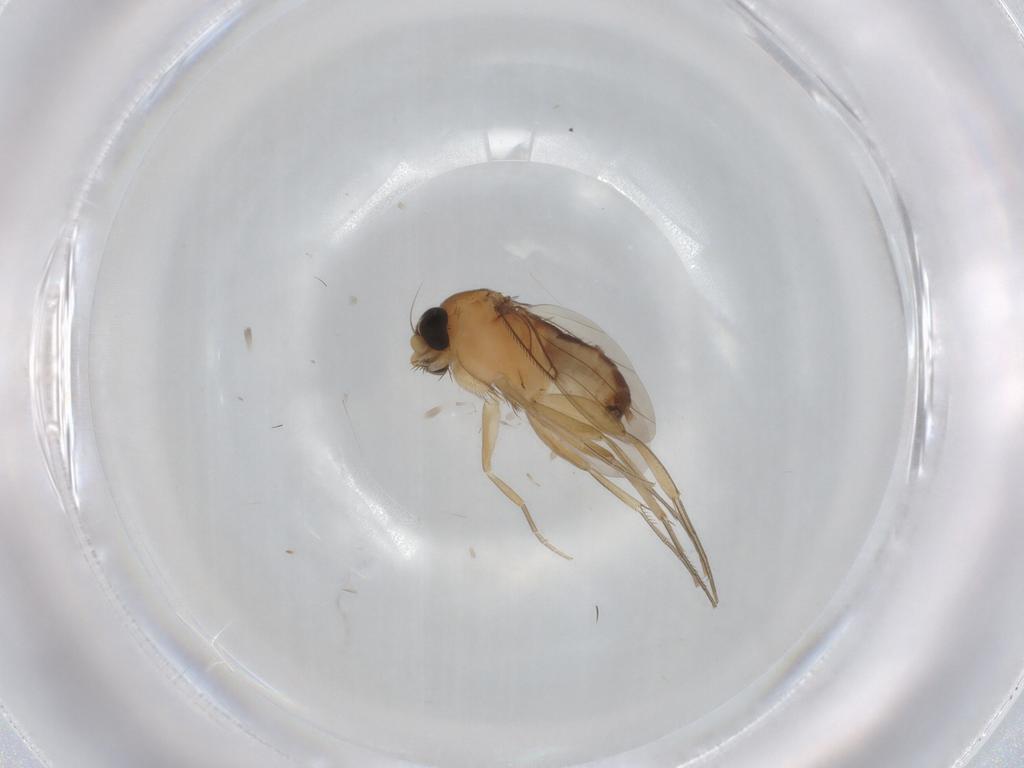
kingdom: Animalia
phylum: Arthropoda
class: Insecta
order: Diptera
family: Phoridae
